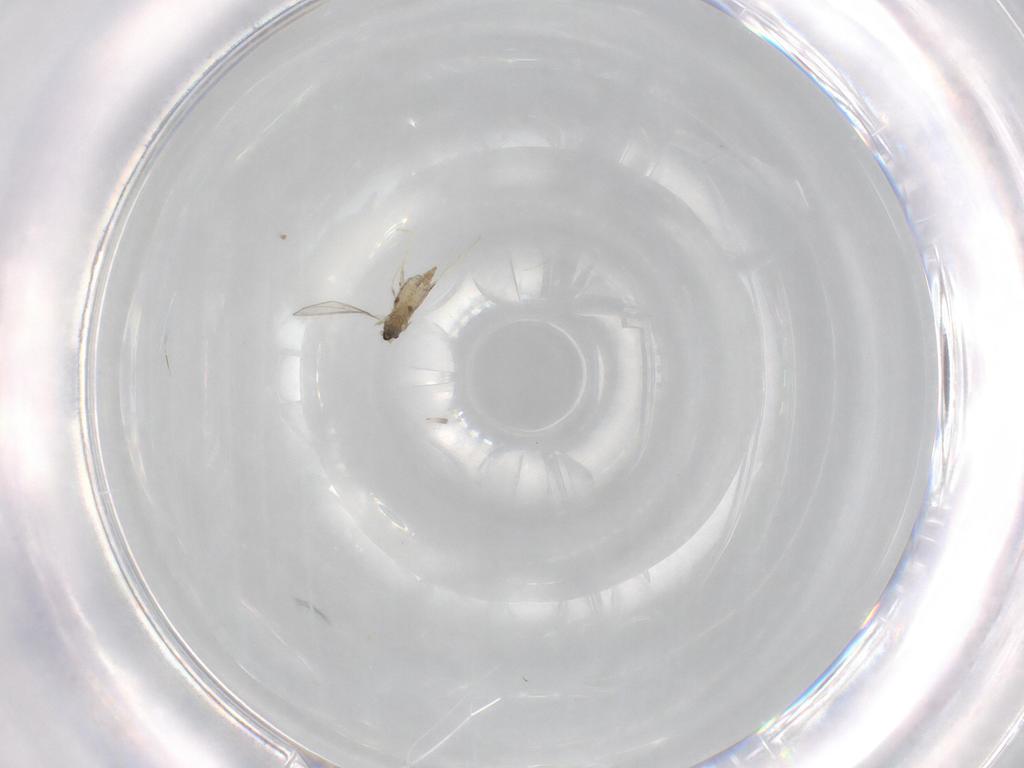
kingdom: Animalia
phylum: Arthropoda
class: Insecta
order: Diptera
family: Cecidomyiidae
